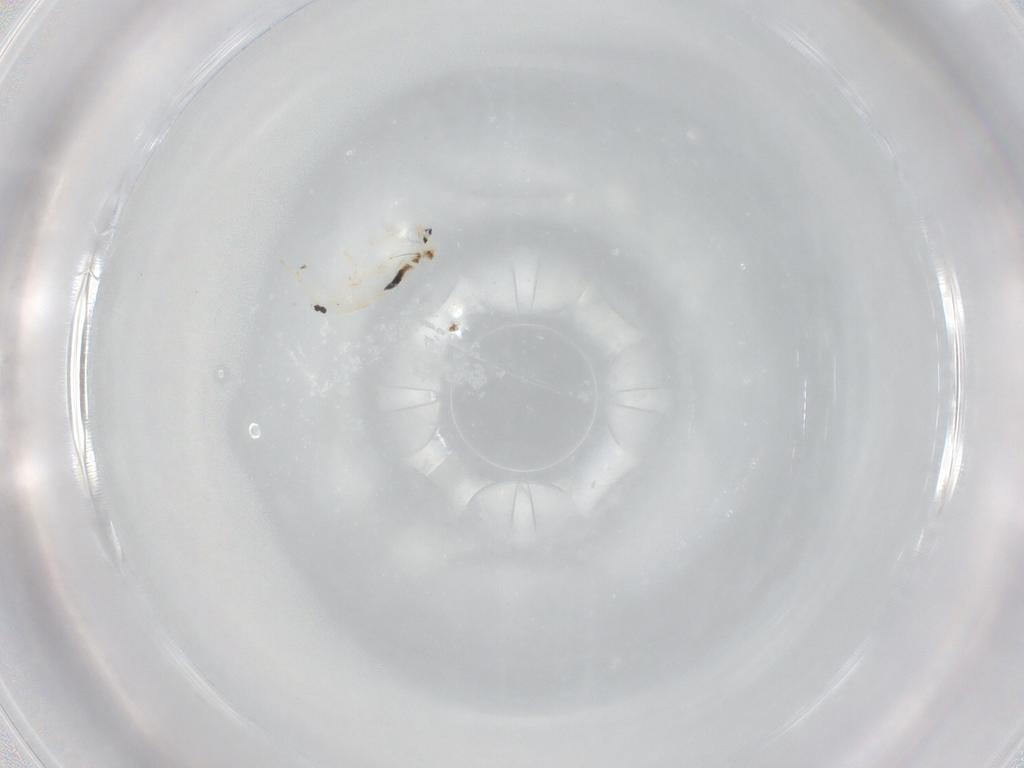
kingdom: Animalia
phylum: Arthropoda
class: Collembola
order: Entomobryomorpha
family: Entomobryidae
